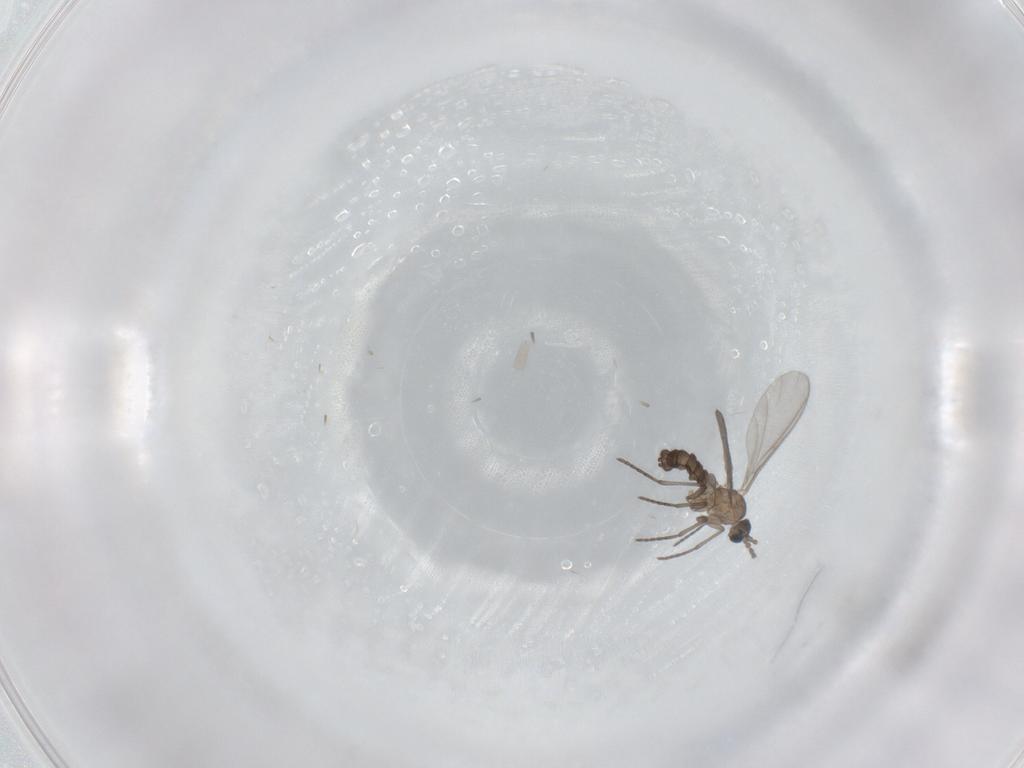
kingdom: Animalia
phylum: Arthropoda
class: Insecta
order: Diptera
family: Sciaridae
